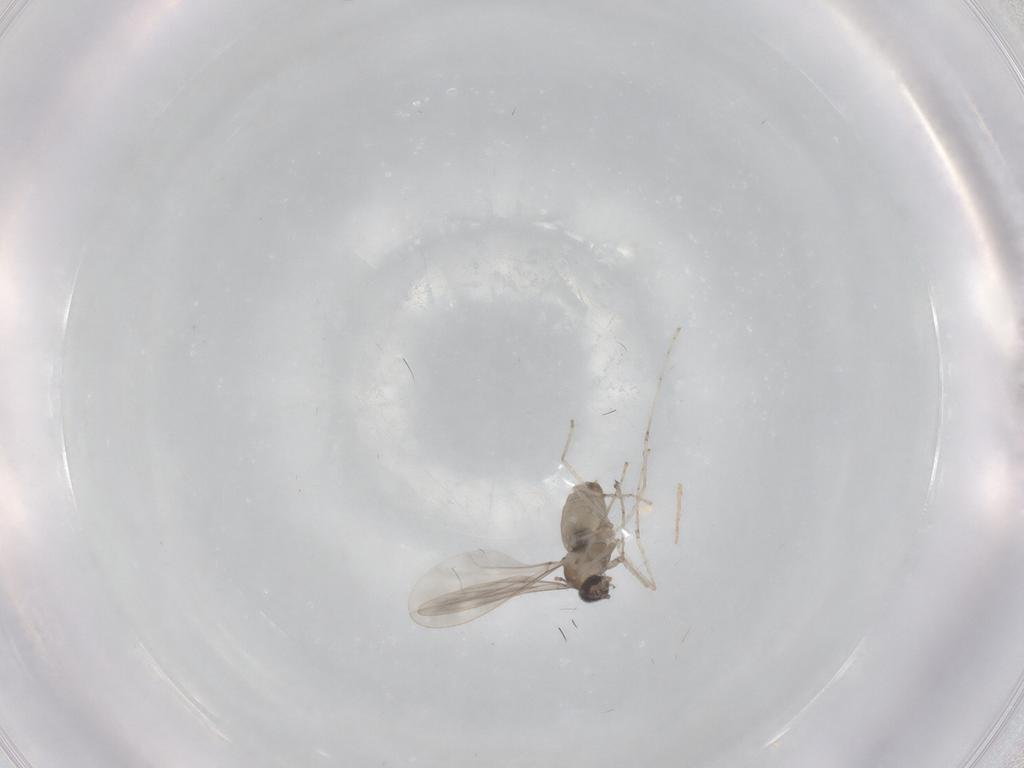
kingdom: Animalia
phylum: Arthropoda
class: Insecta
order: Diptera
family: Cecidomyiidae
